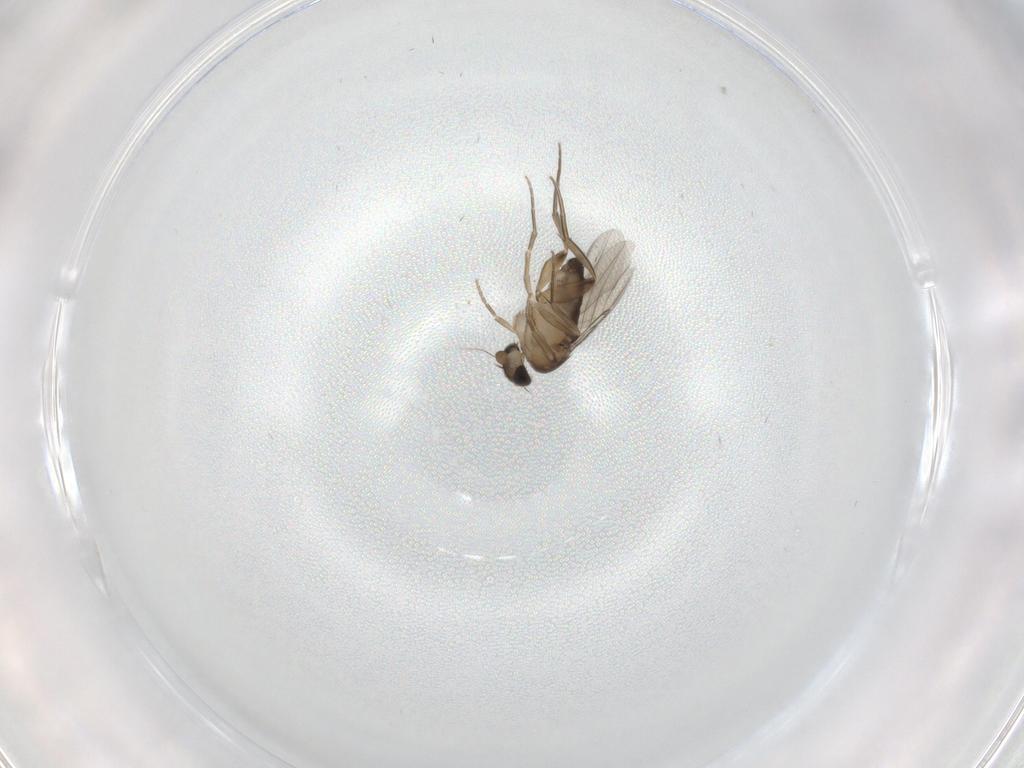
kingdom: Animalia
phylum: Arthropoda
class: Insecta
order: Diptera
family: Phoridae
